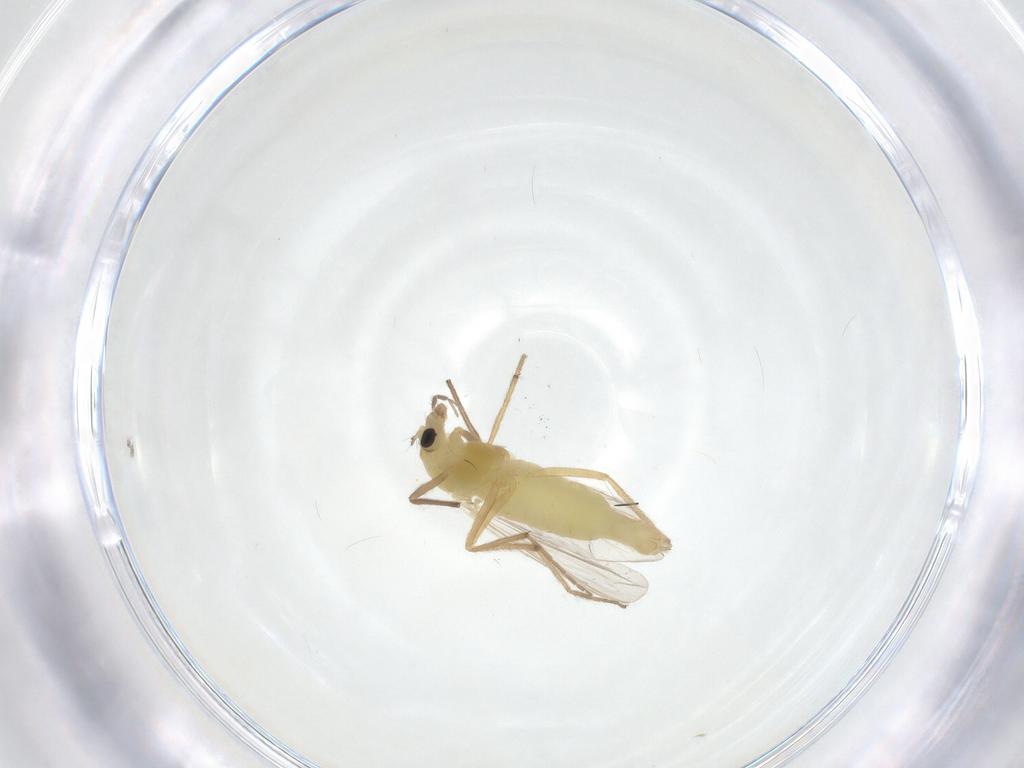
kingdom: Animalia
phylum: Arthropoda
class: Insecta
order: Diptera
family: Chironomidae
